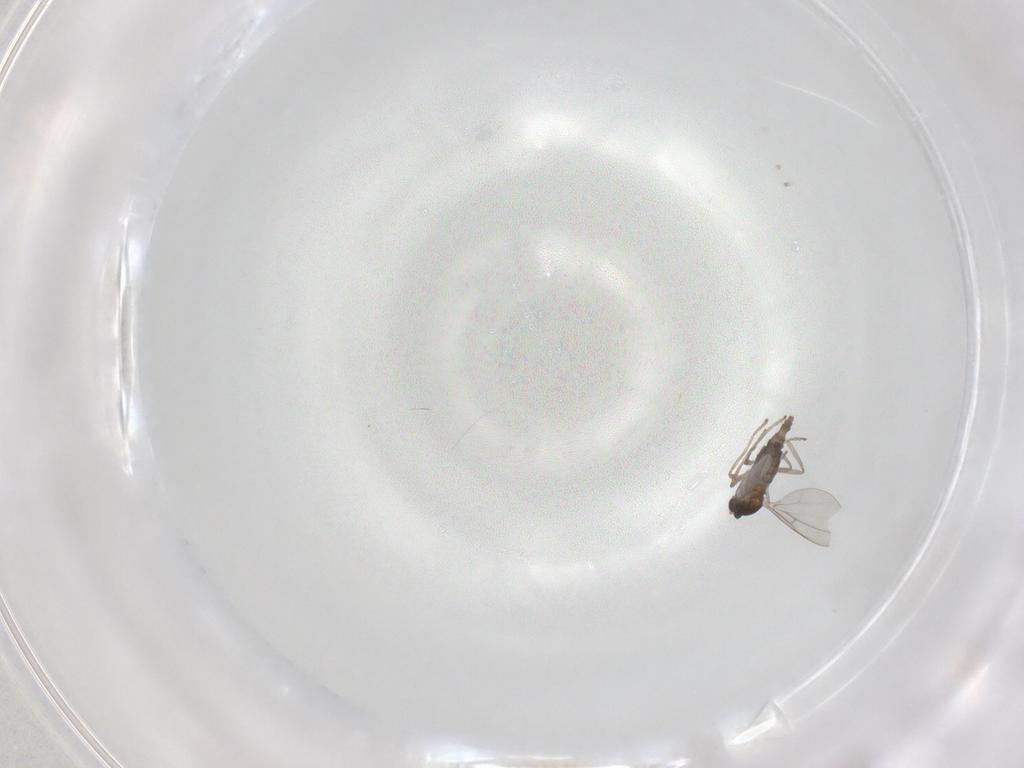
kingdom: Animalia
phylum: Arthropoda
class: Insecta
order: Diptera
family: Cecidomyiidae
